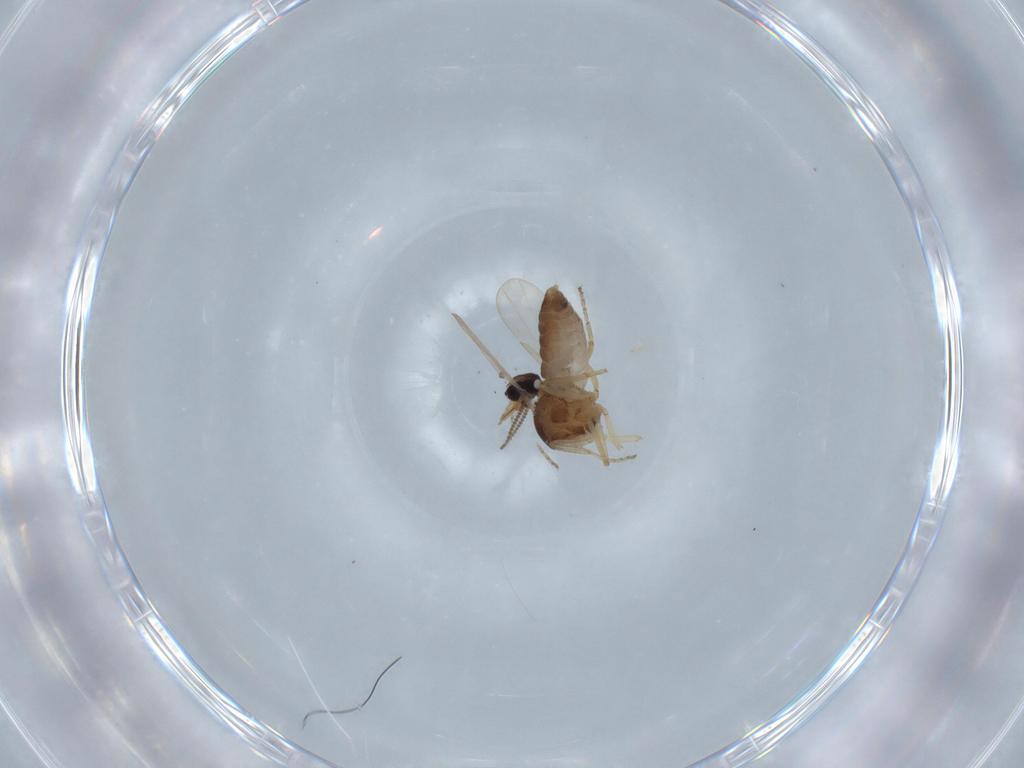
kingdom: Animalia
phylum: Arthropoda
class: Insecta
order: Diptera
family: Ceratopogonidae
